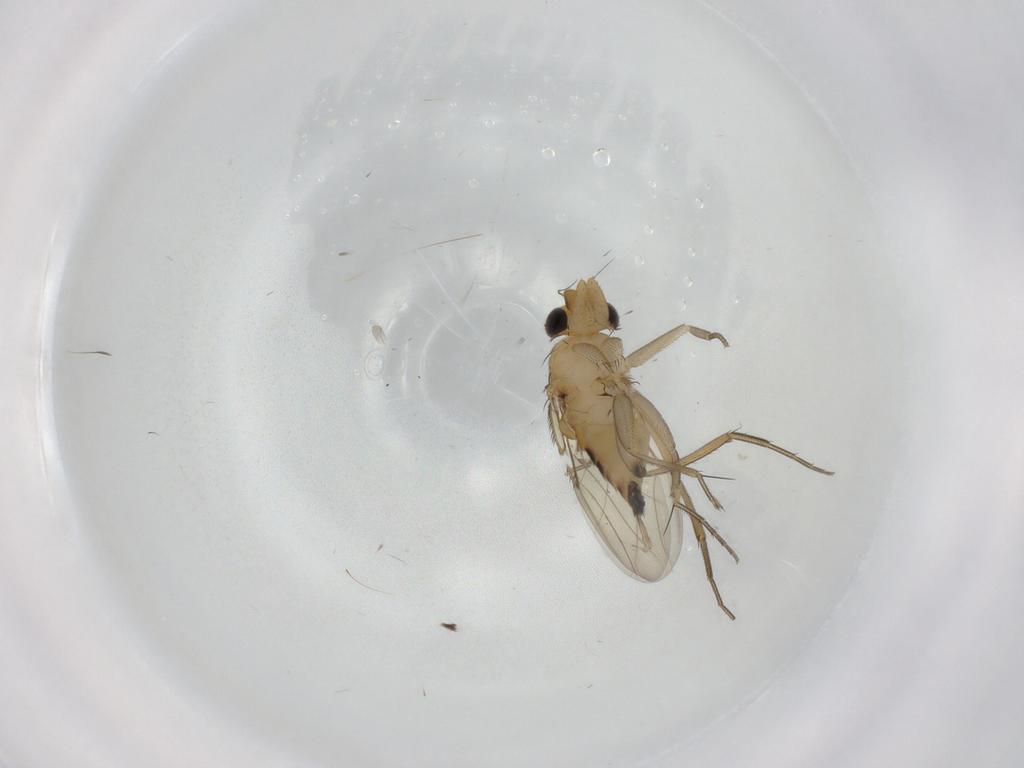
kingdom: Animalia
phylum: Arthropoda
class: Insecta
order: Diptera
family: Phoridae
